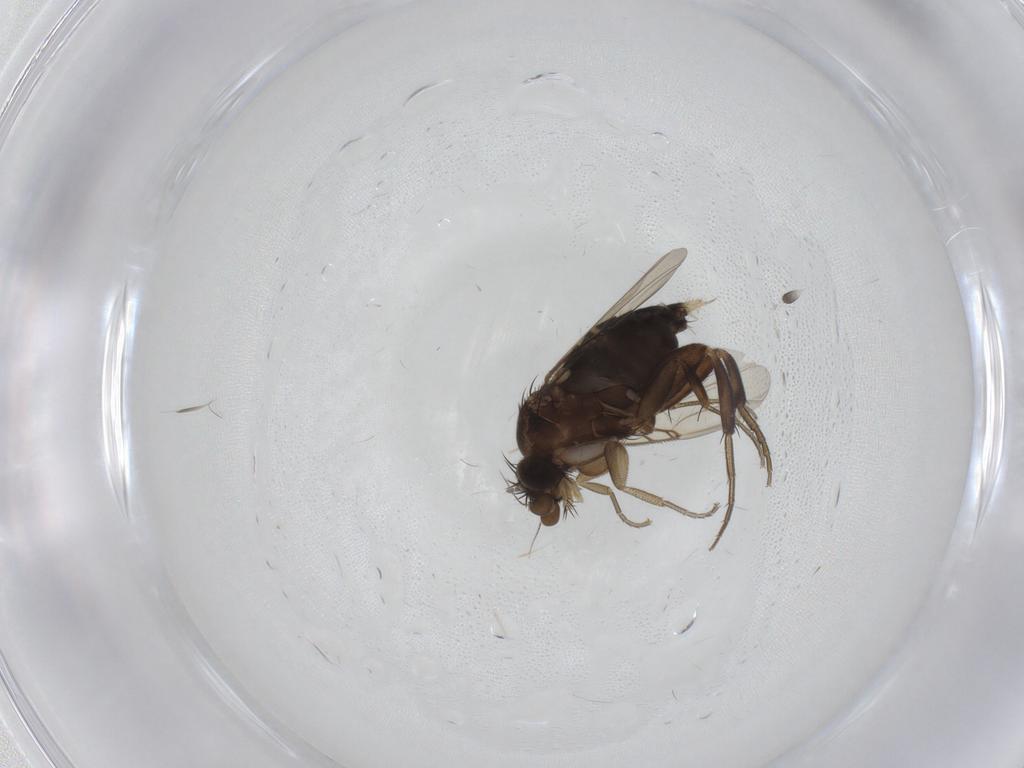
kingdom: Animalia
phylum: Arthropoda
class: Insecta
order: Diptera
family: Phoridae
